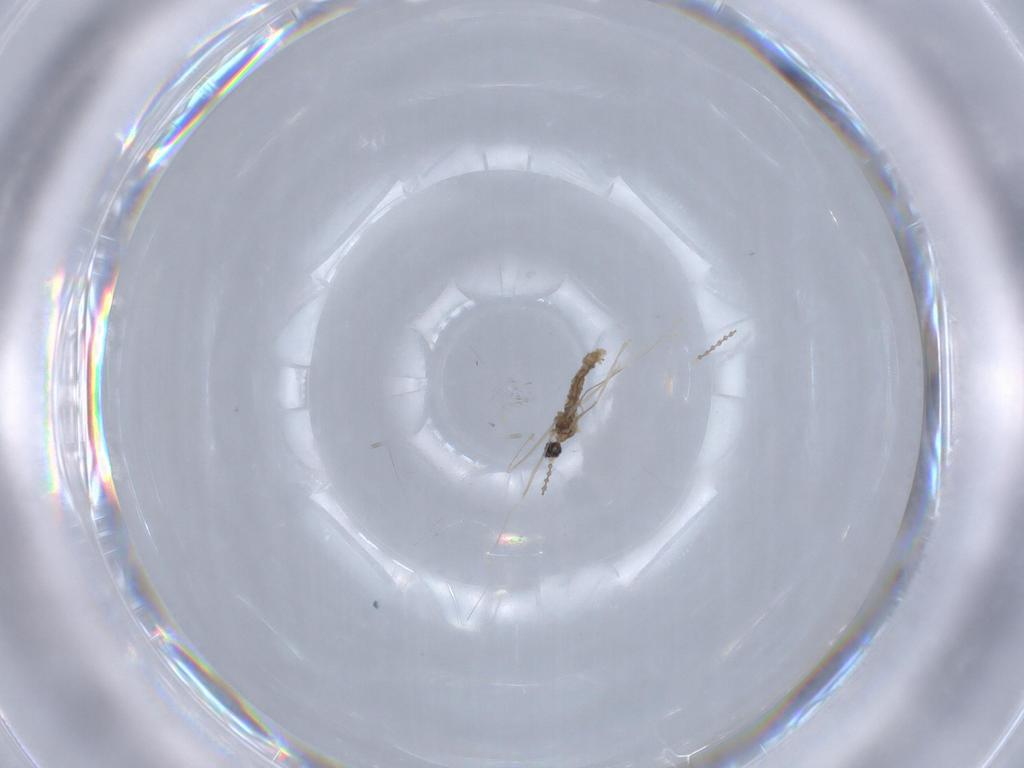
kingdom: Animalia
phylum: Arthropoda
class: Insecta
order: Diptera
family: Cecidomyiidae
